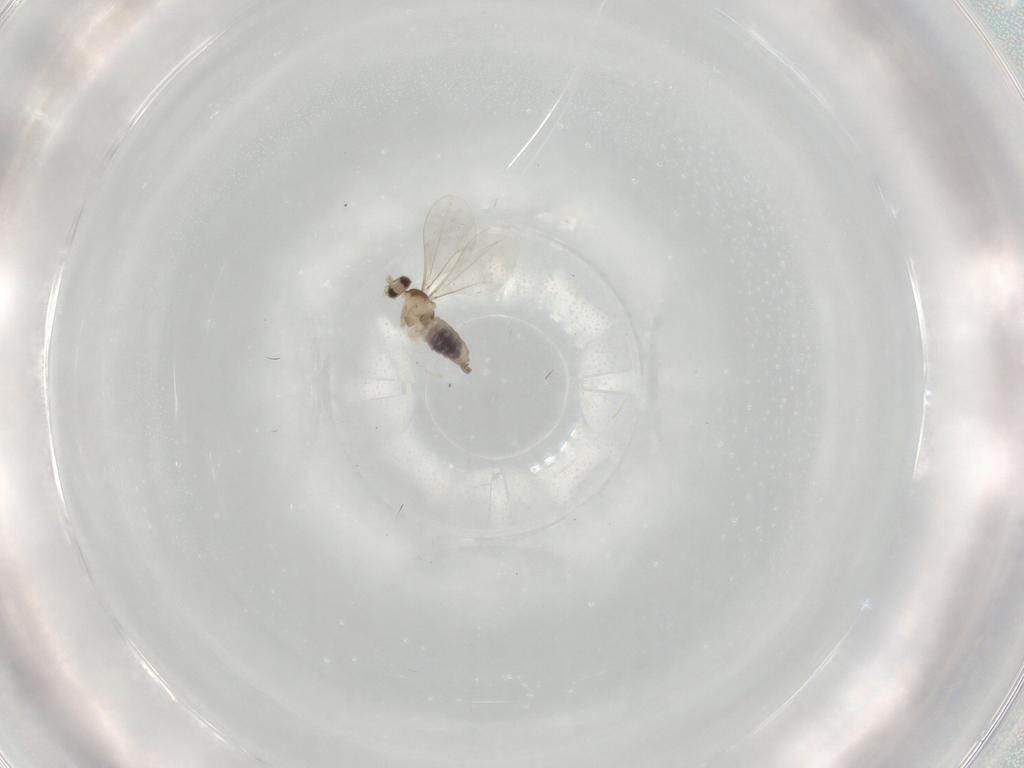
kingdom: Animalia
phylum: Arthropoda
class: Insecta
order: Diptera
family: Cecidomyiidae
